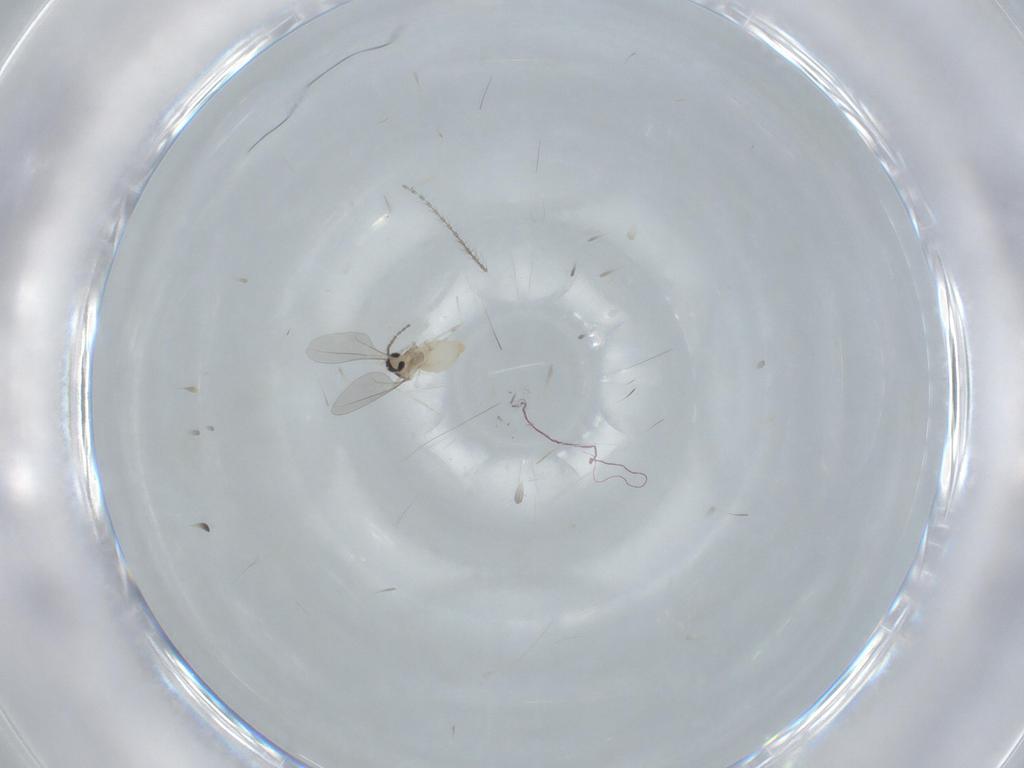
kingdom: Animalia
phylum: Arthropoda
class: Insecta
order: Diptera
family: Cecidomyiidae
